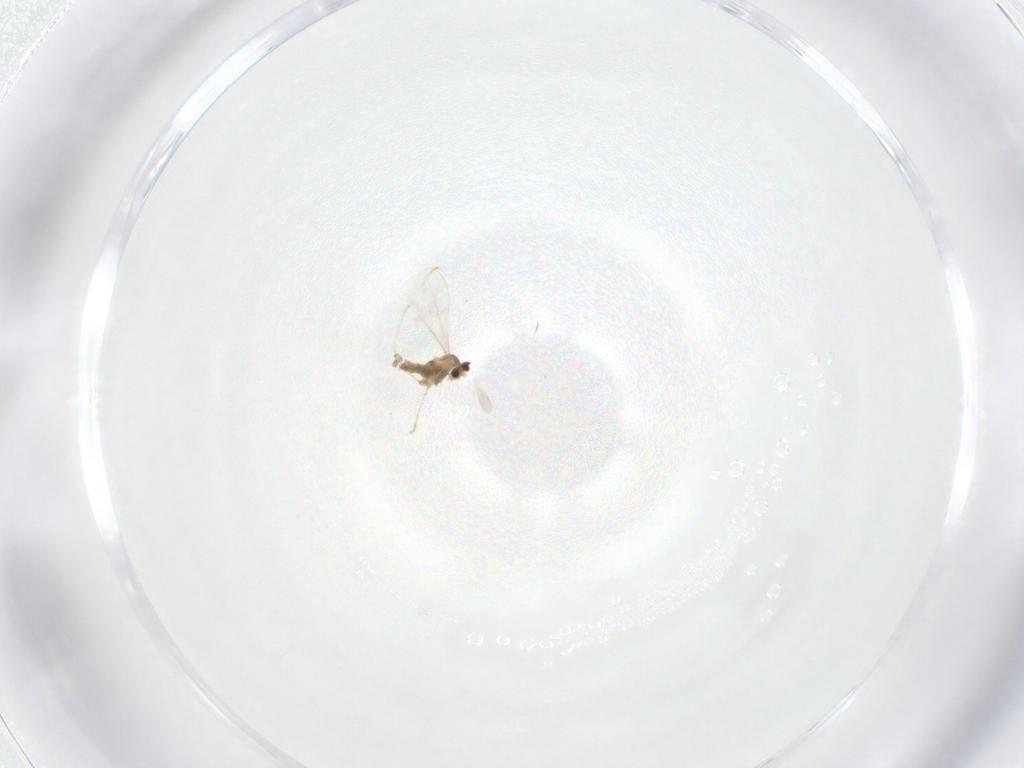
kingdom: Animalia
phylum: Arthropoda
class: Insecta
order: Diptera
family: Cecidomyiidae
